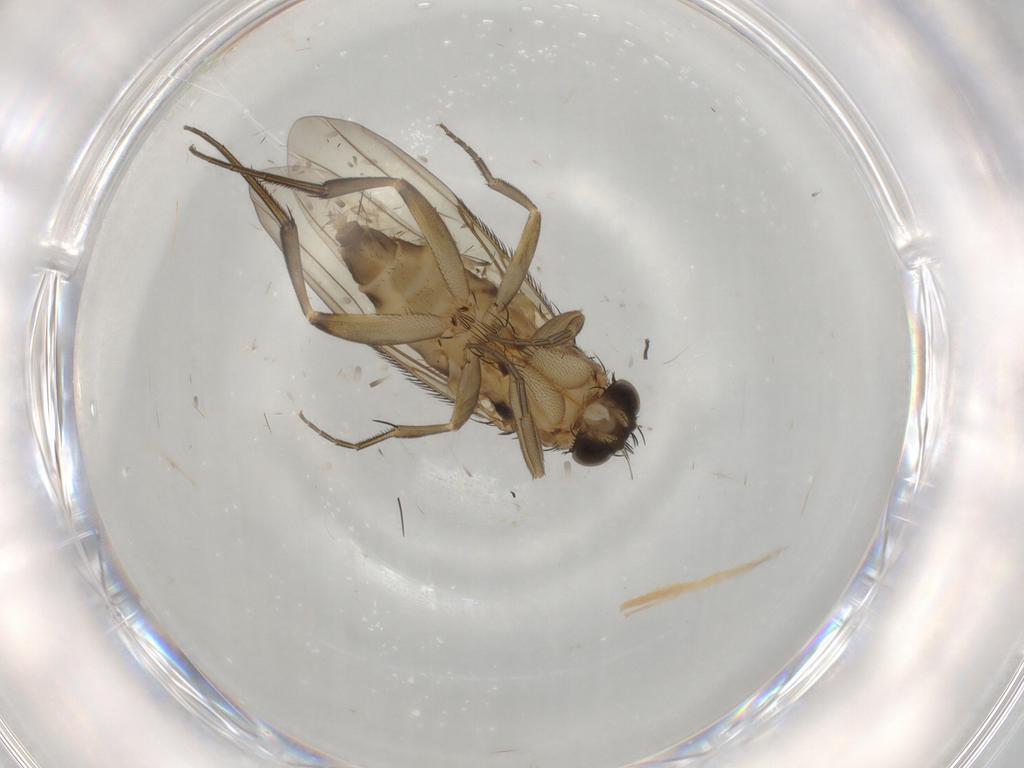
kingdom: Animalia
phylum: Arthropoda
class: Insecta
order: Diptera
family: Phoridae
